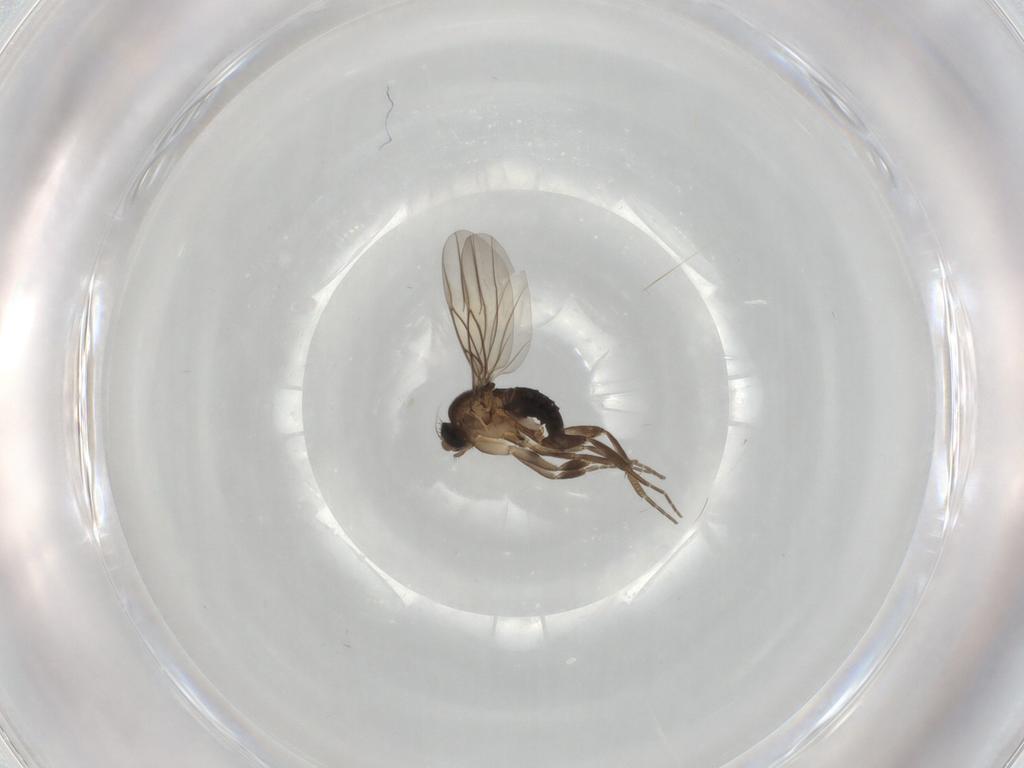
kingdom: Animalia
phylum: Arthropoda
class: Insecta
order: Diptera
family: Phoridae
